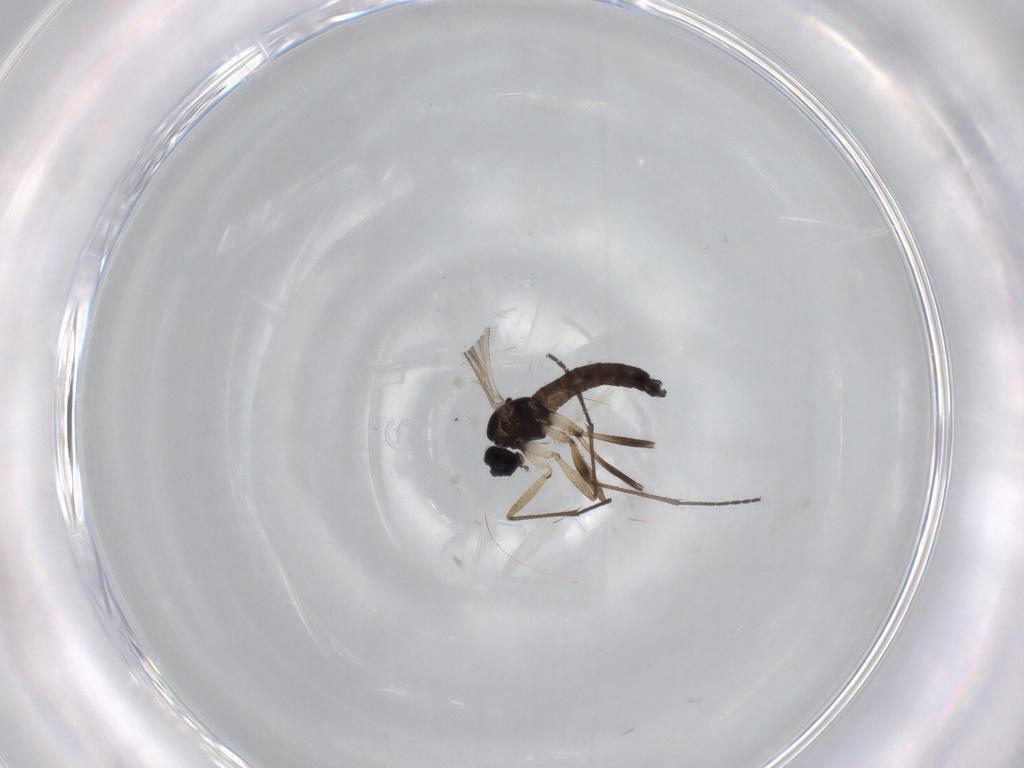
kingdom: Animalia
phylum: Arthropoda
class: Insecta
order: Diptera
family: Sciaridae
